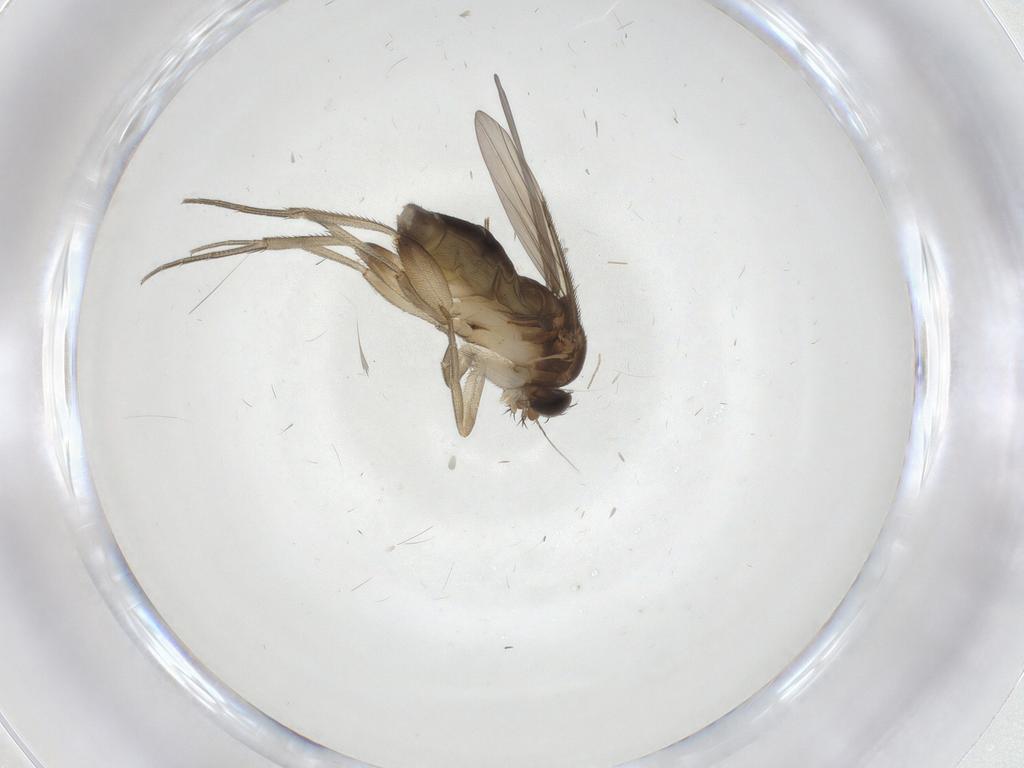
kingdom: Animalia
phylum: Arthropoda
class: Insecta
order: Diptera
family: Phoridae
